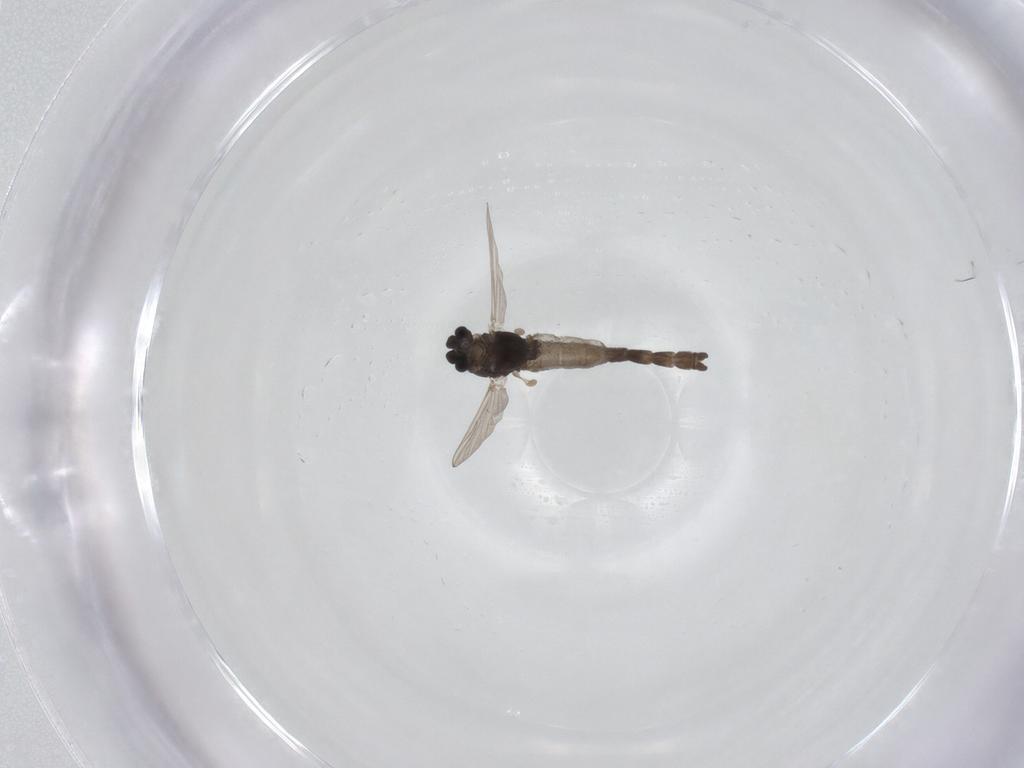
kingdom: Animalia
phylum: Arthropoda
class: Insecta
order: Diptera
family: Chironomidae
